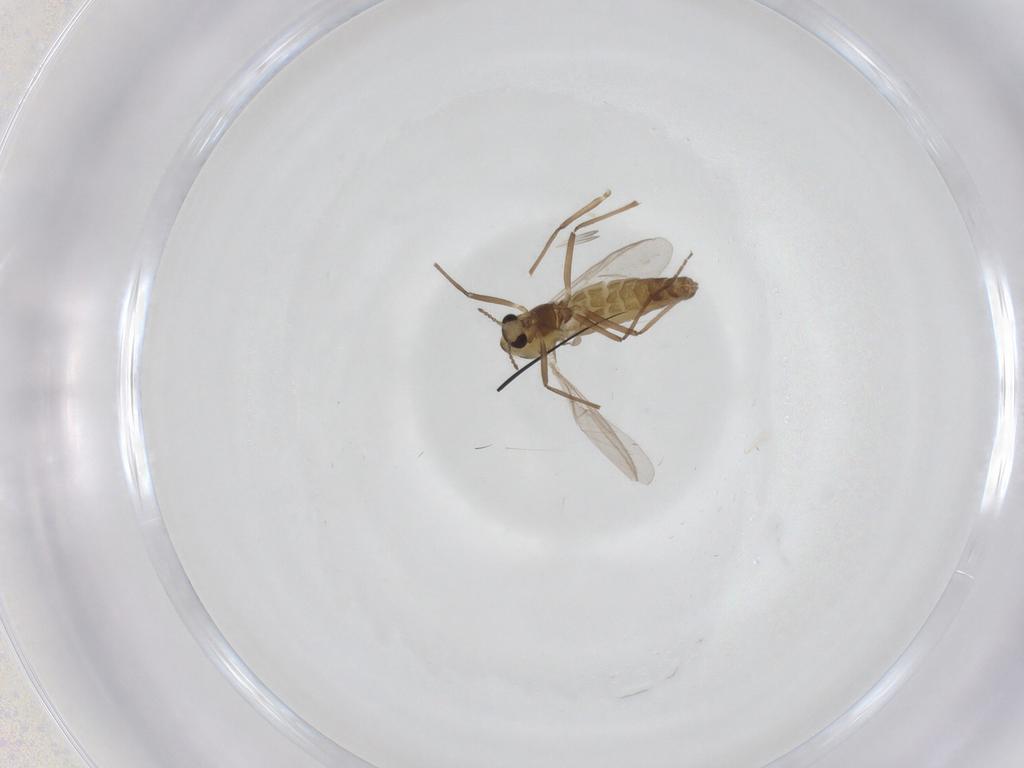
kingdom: Animalia
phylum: Arthropoda
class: Insecta
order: Diptera
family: Chironomidae
